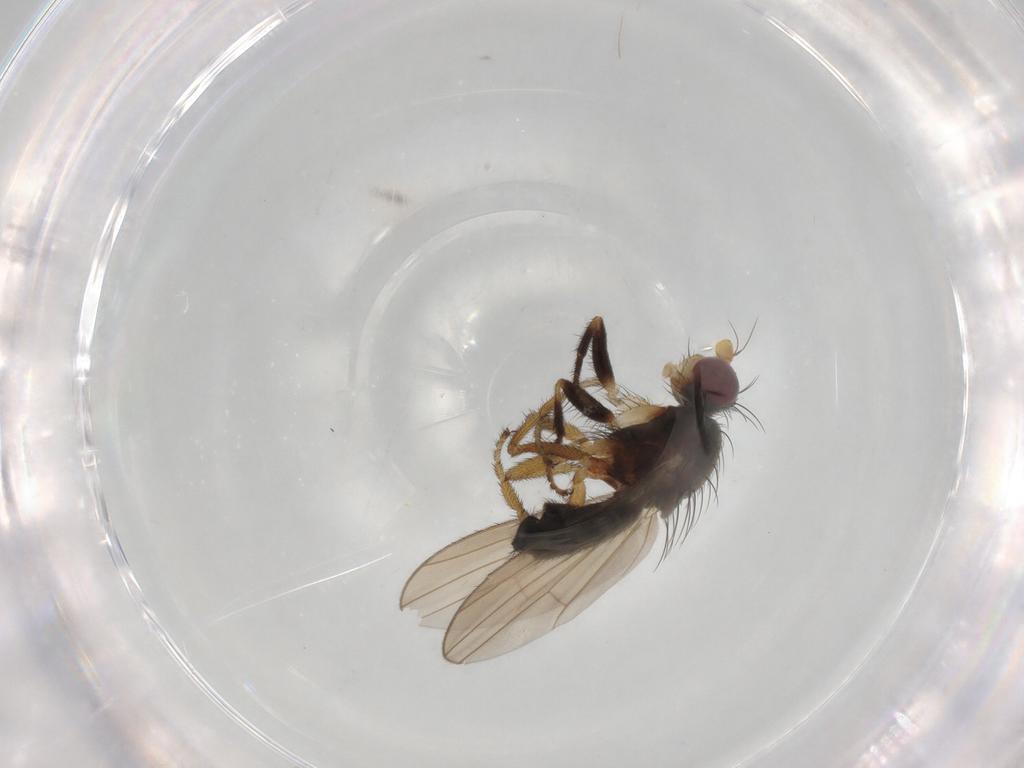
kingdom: Animalia
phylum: Arthropoda
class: Insecta
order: Diptera
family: Heleomyzidae
